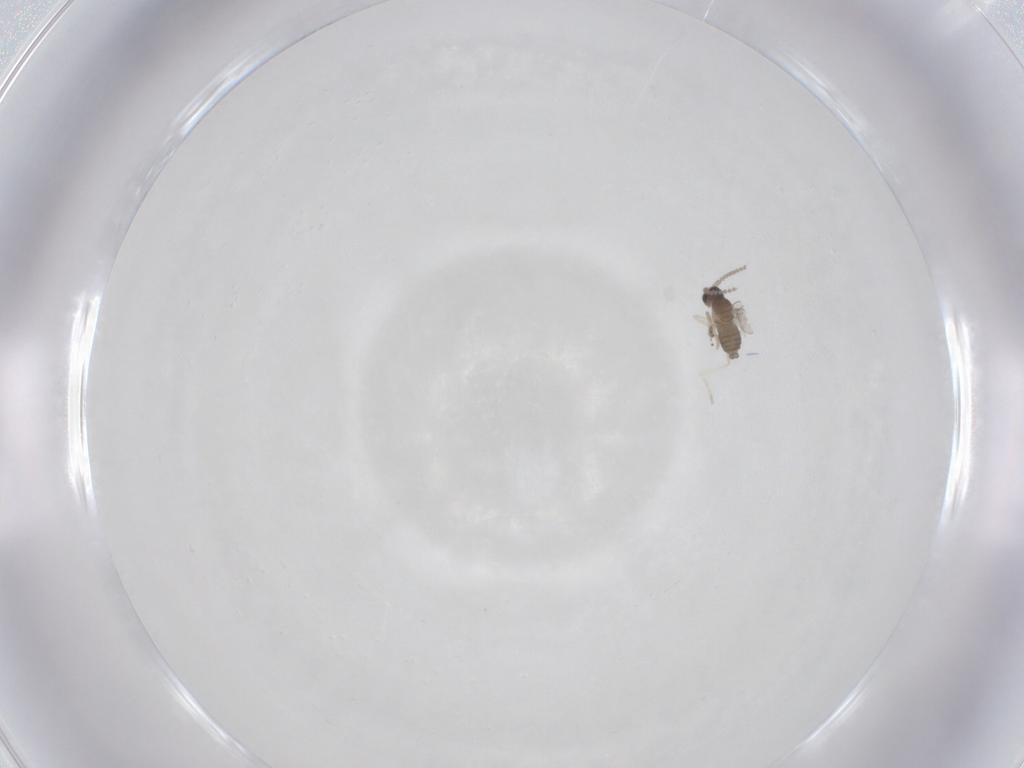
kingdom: Animalia
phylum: Arthropoda
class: Insecta
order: Diptera
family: Cecidomyiidae
